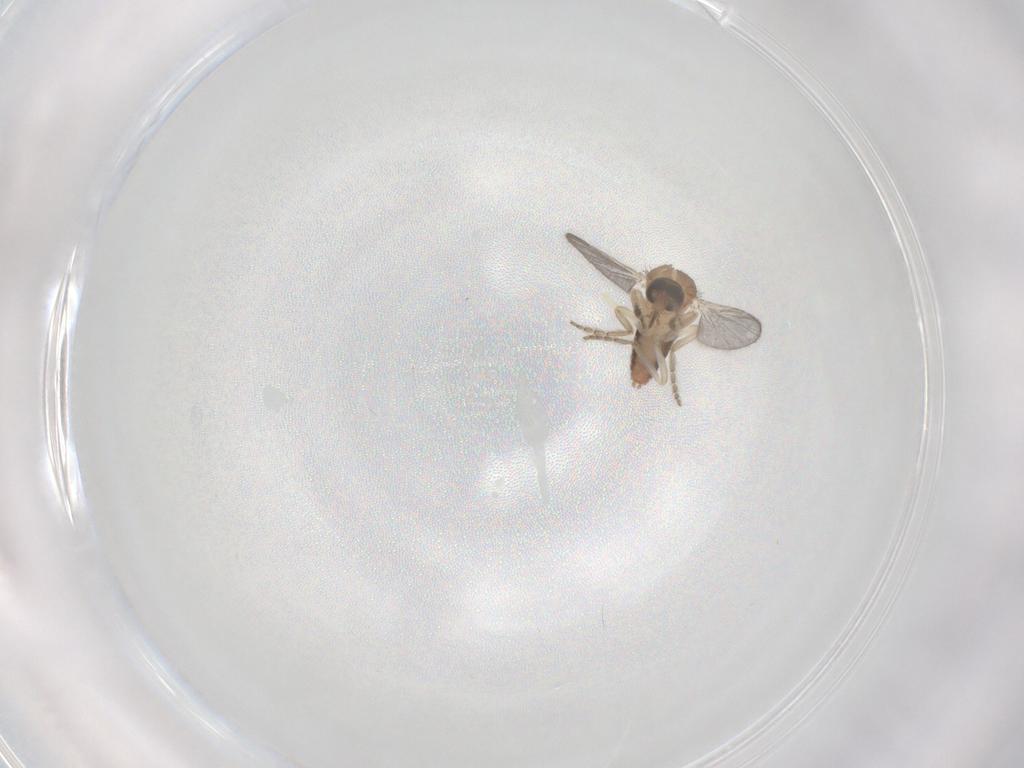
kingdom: Animalia
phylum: Arthropoda
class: Insecta
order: Diptera
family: Ceratopogonidae
